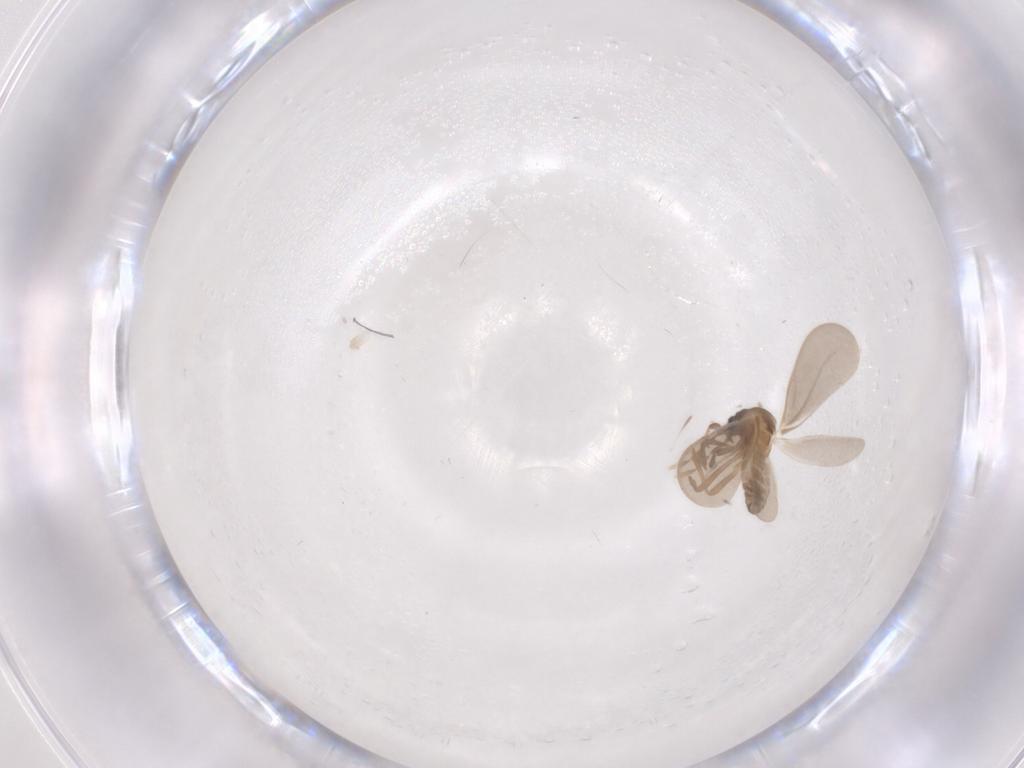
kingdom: Animalia
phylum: Arthropoda
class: Insecta
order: Hemiptera
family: Enicocephalidae
